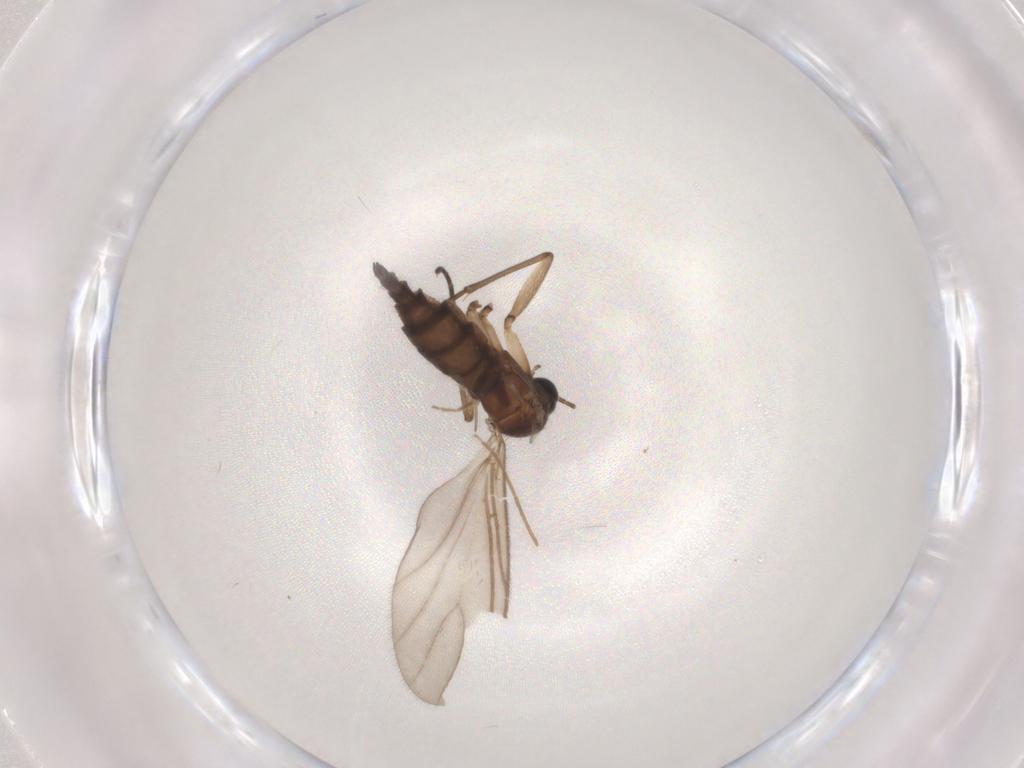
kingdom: Animalia
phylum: Arthropoda
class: Insecta
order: Diptera
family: Sciaridae
